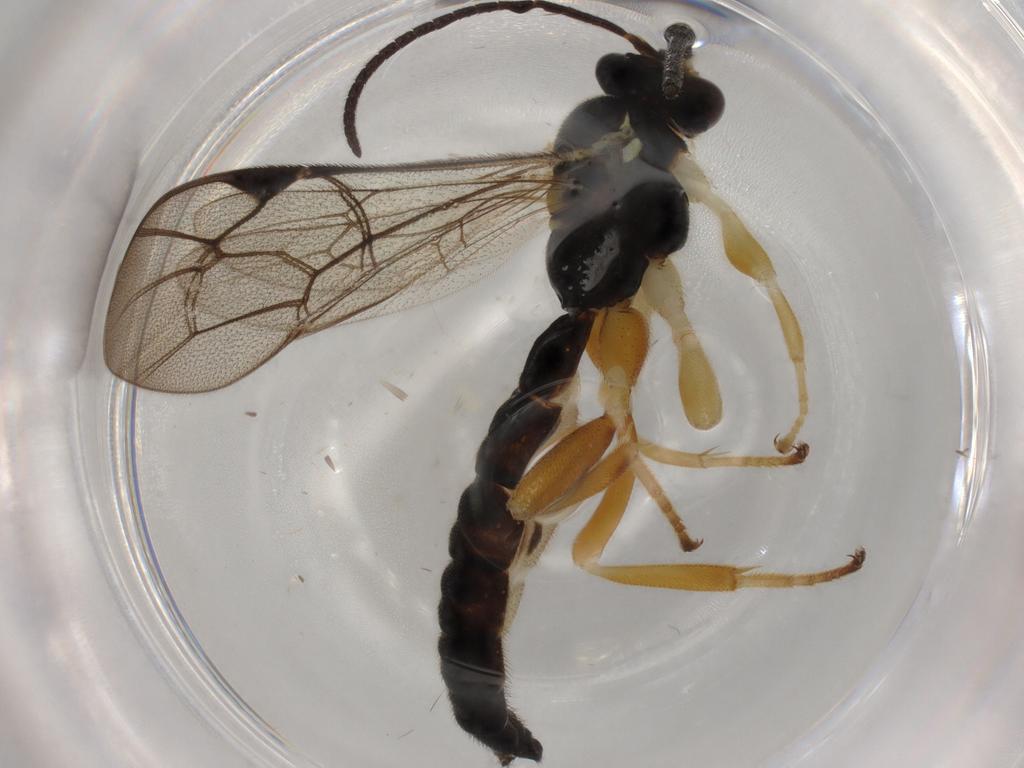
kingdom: Animalia
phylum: Arthropoda
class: Insecta
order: Hymenoptera
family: Ichneumonidae
